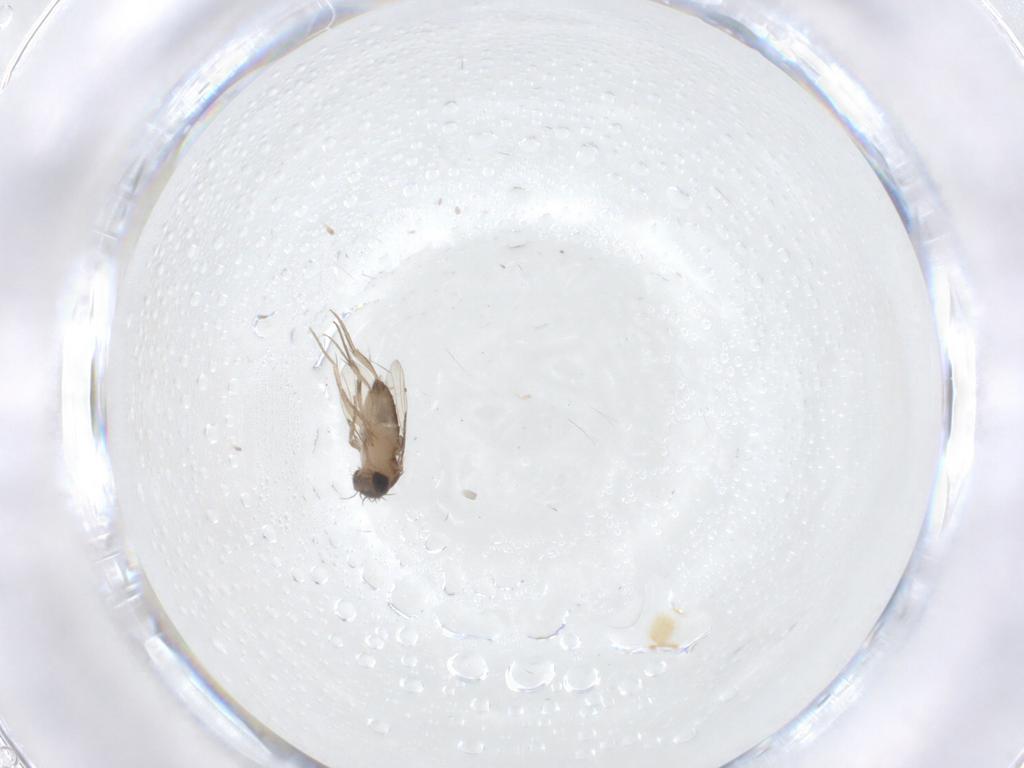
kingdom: Animalia
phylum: Arthropoda
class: Insecta
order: Diptera
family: Phoridae
